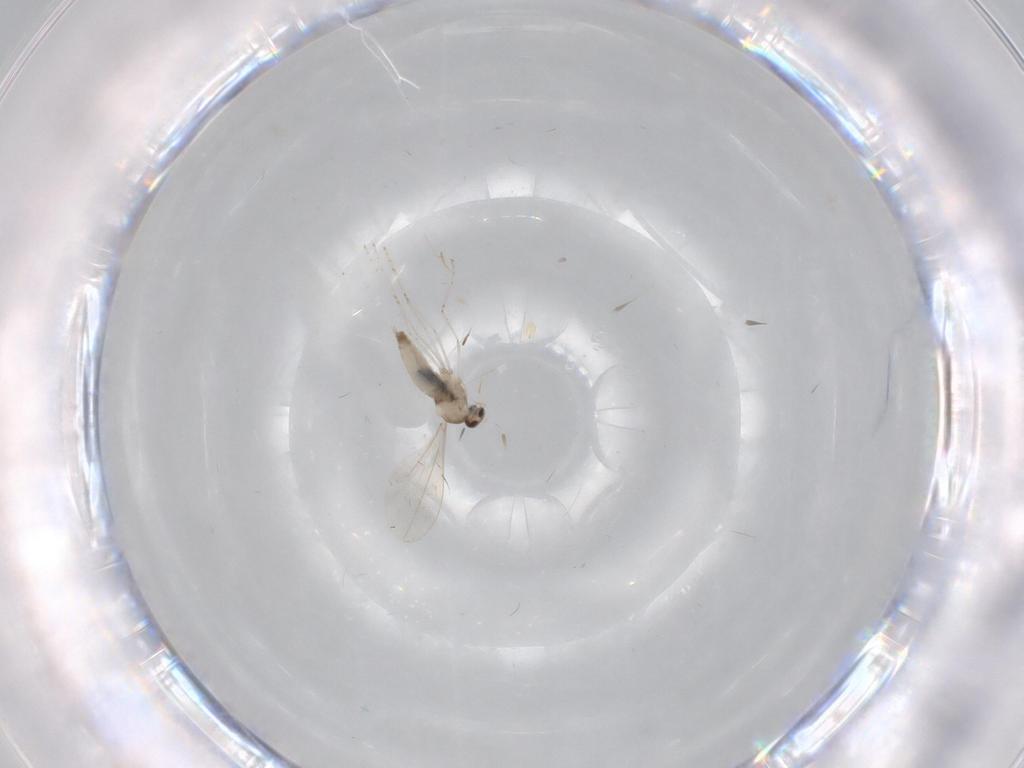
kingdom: Animalia
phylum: Arthropoda
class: Insecta
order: Diptera
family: Cecidomyiidae
